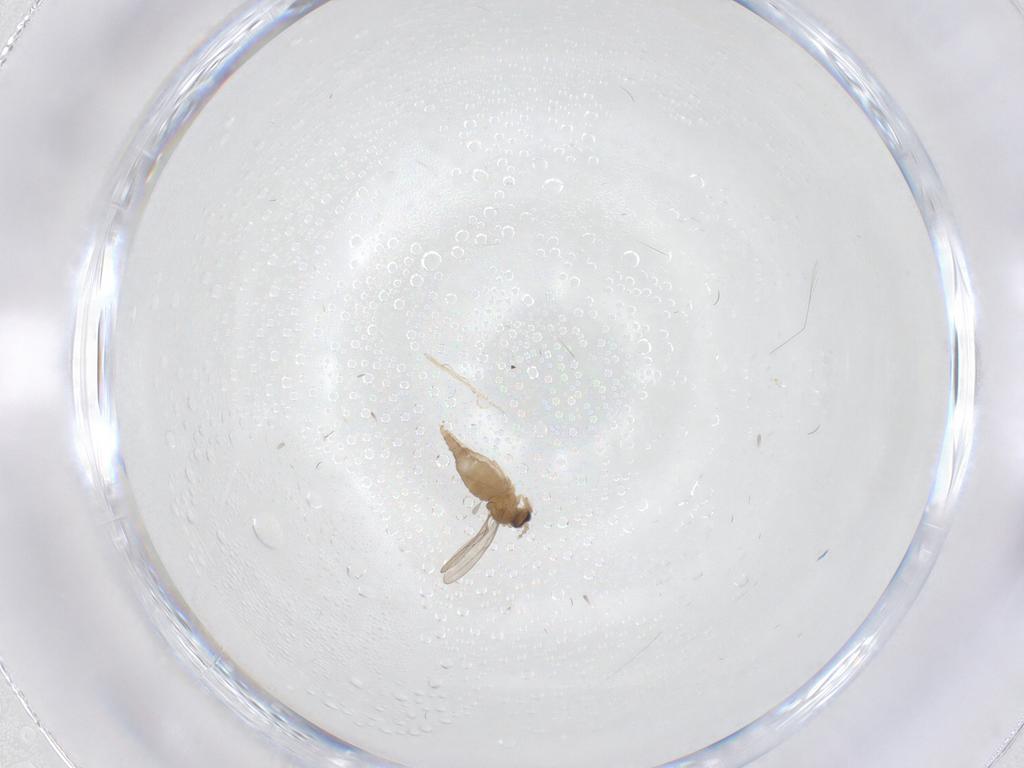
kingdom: Animalia
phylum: Arthropoda
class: Insecta
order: Diptera
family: Cecidomyiidae
